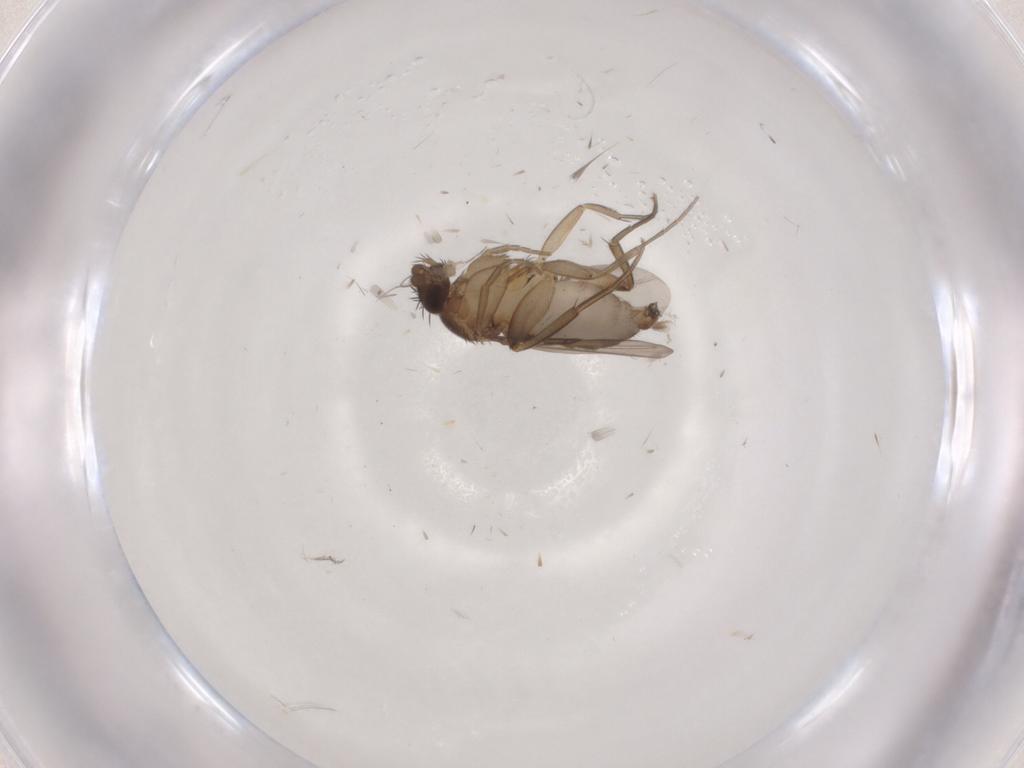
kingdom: Animalia
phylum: Arthropoda
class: Insecta
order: Diptera
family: Phoridae
